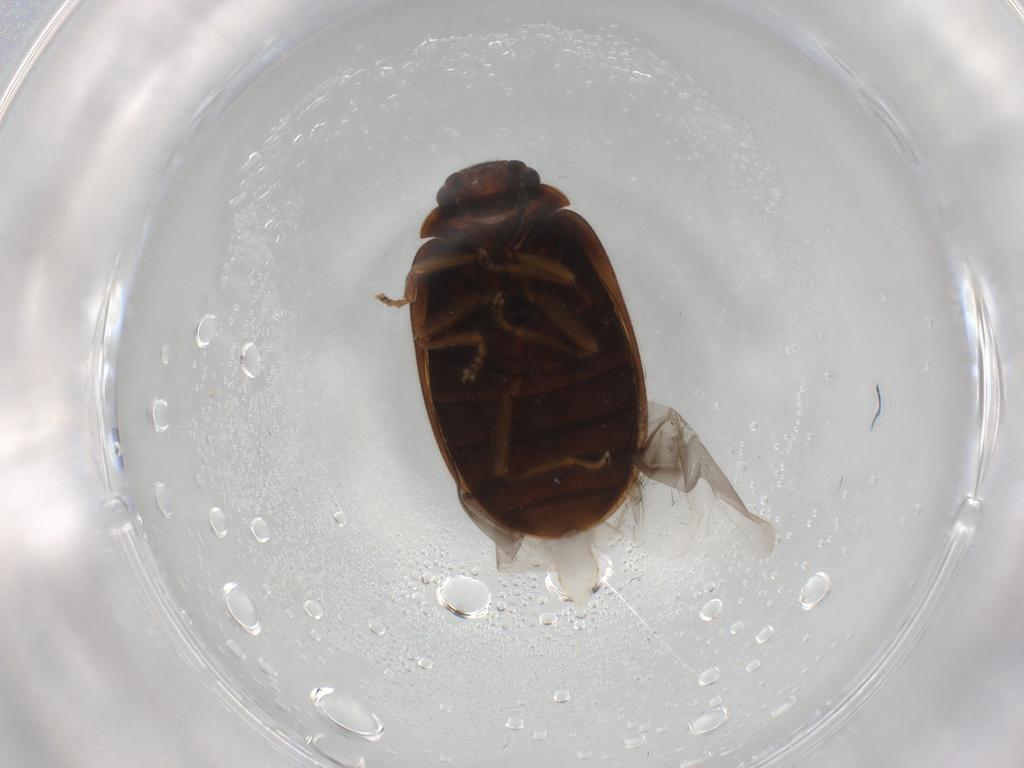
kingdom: Animalia
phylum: Arthropoda
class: Insecta
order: Coleoptera
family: Scirtidae
